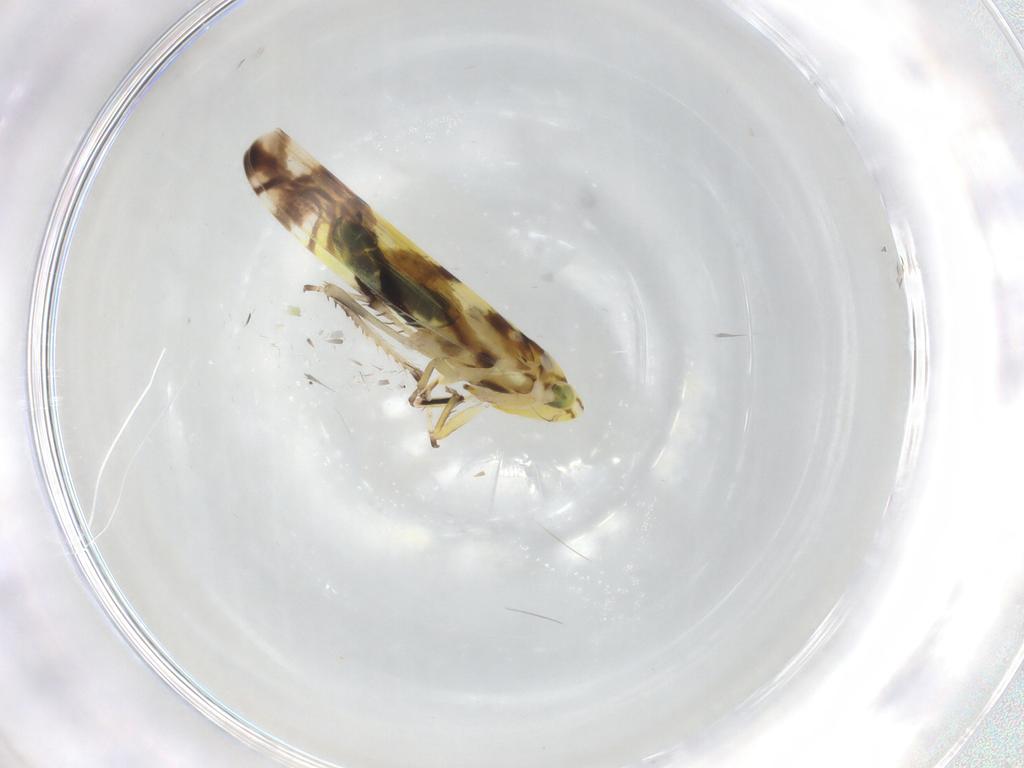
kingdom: Animalia
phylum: Arthropoda
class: Insecta
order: Hemiptera
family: Cicadellidae
